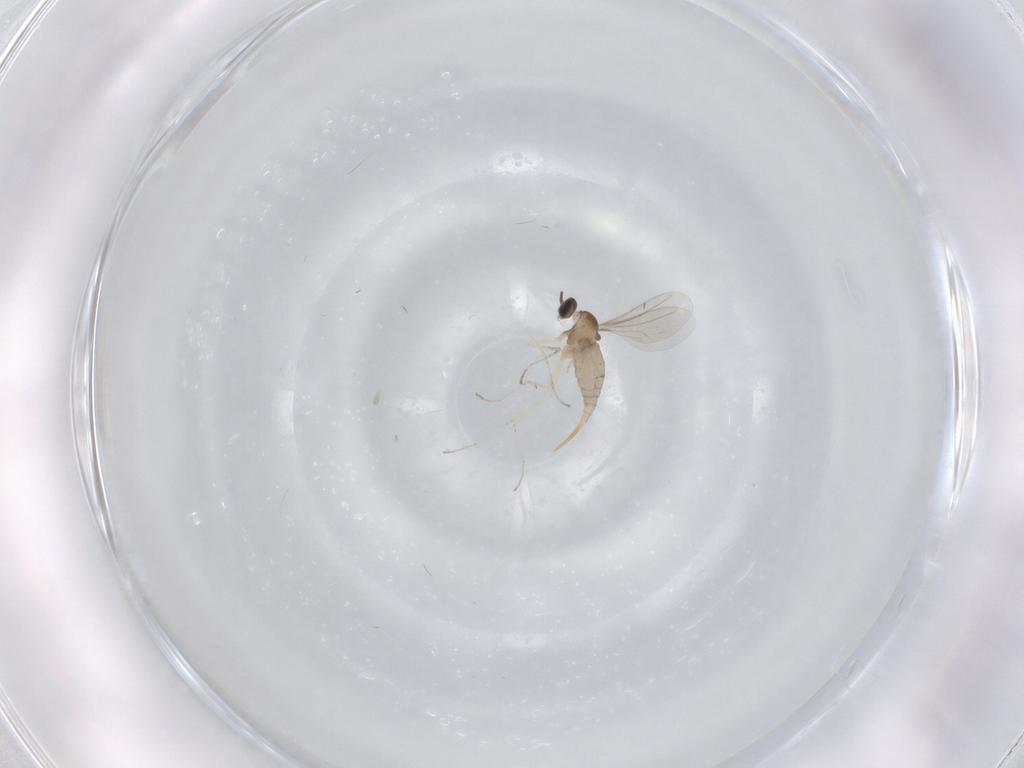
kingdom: Animalia
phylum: Arthropoda
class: Insecta
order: Diptera
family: Cecidomyiidae
